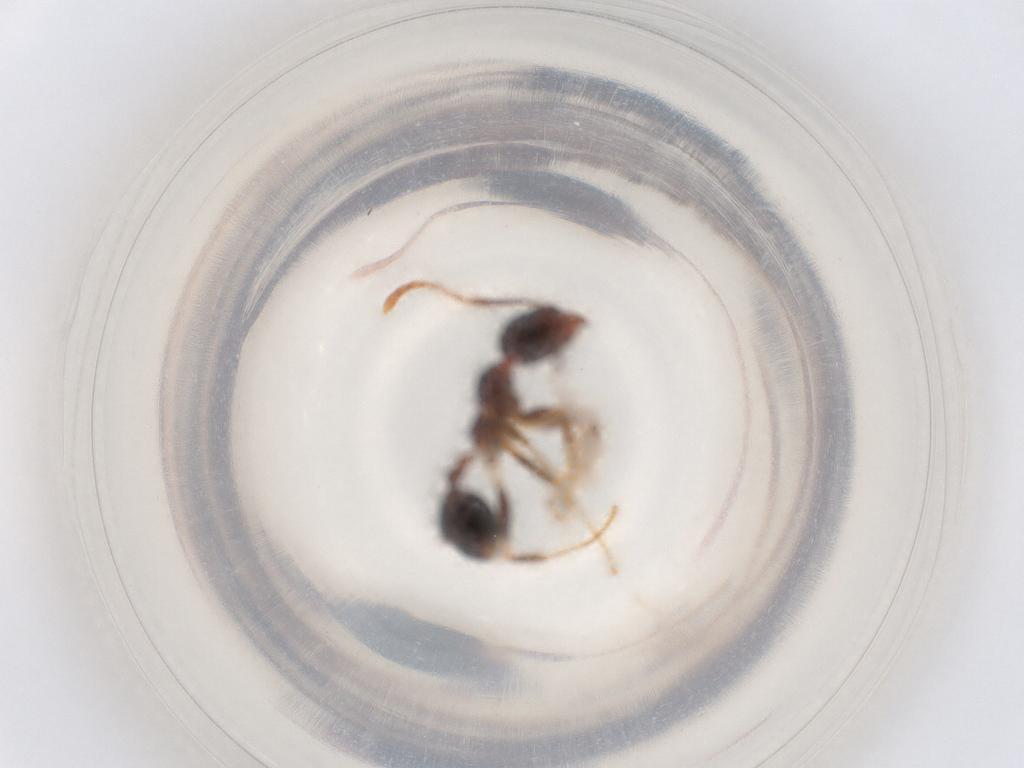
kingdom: Animalia
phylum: Arthropoda
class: Insecta
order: Hymenoptera
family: Formicidae
